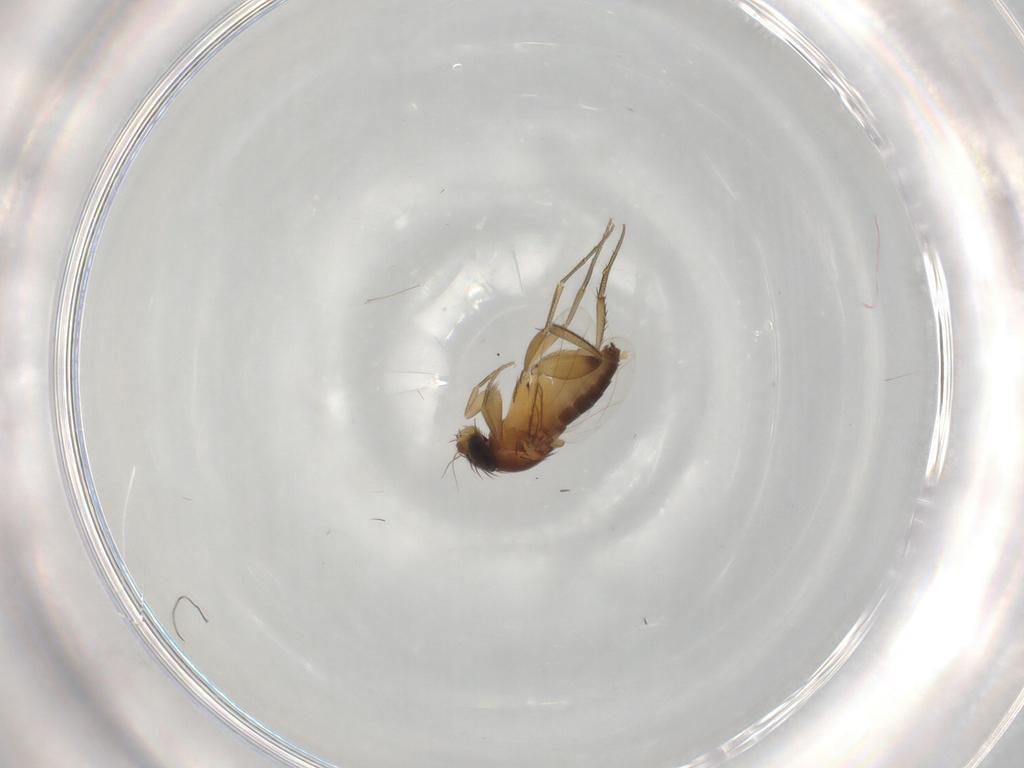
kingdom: Animalia
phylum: Arthropoda
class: Insecta
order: Diptera
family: Phoridae
